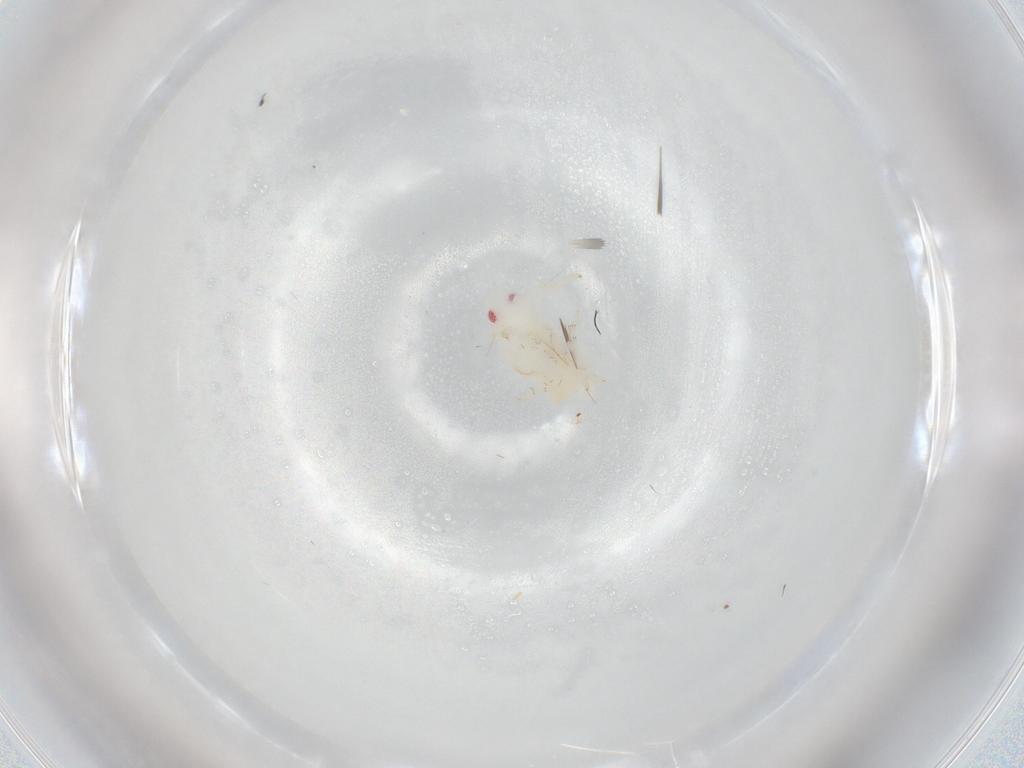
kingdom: Animalia
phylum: Arthropoda
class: Insecta
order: Hemiptera
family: Flatidae
